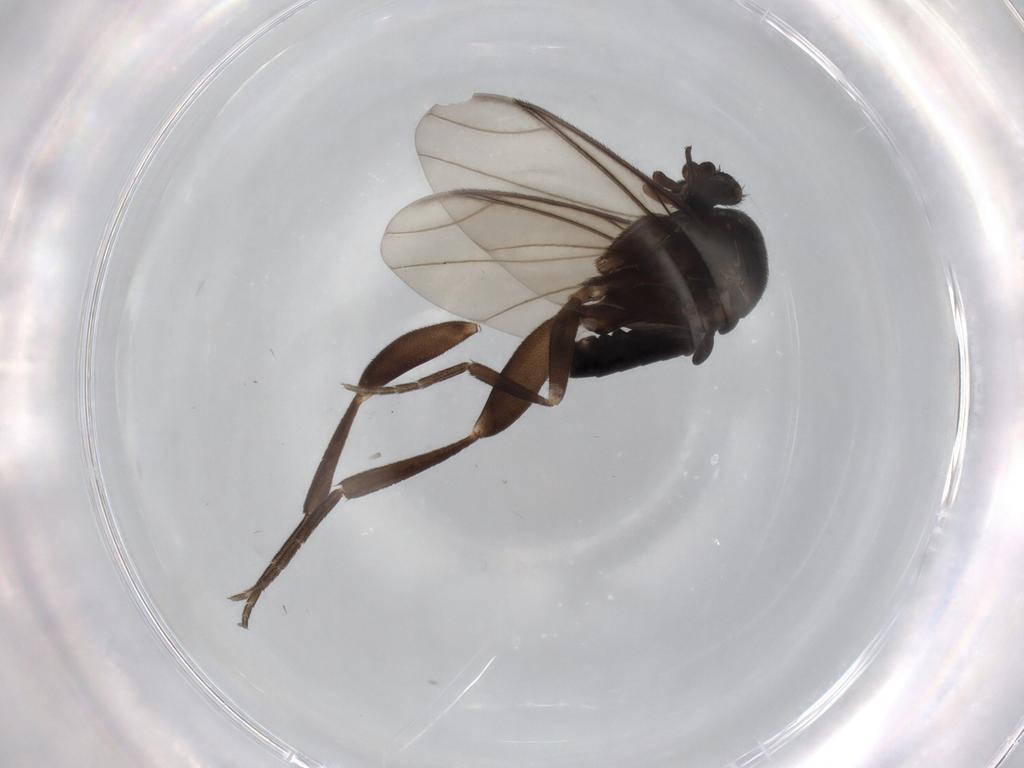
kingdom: Animalia
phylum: Arthropoda
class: Insecta
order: Diptera
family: Phoridae
